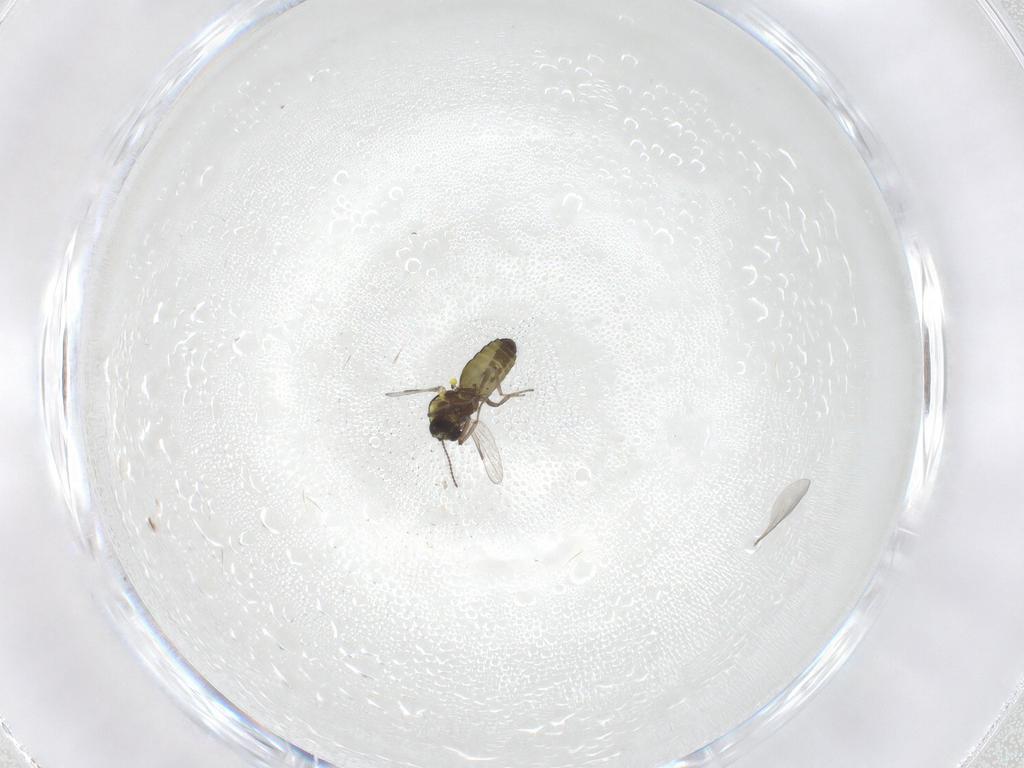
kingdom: Animalia
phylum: Arthropoda
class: Insecta
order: Diptera
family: Ceratopogonidae
